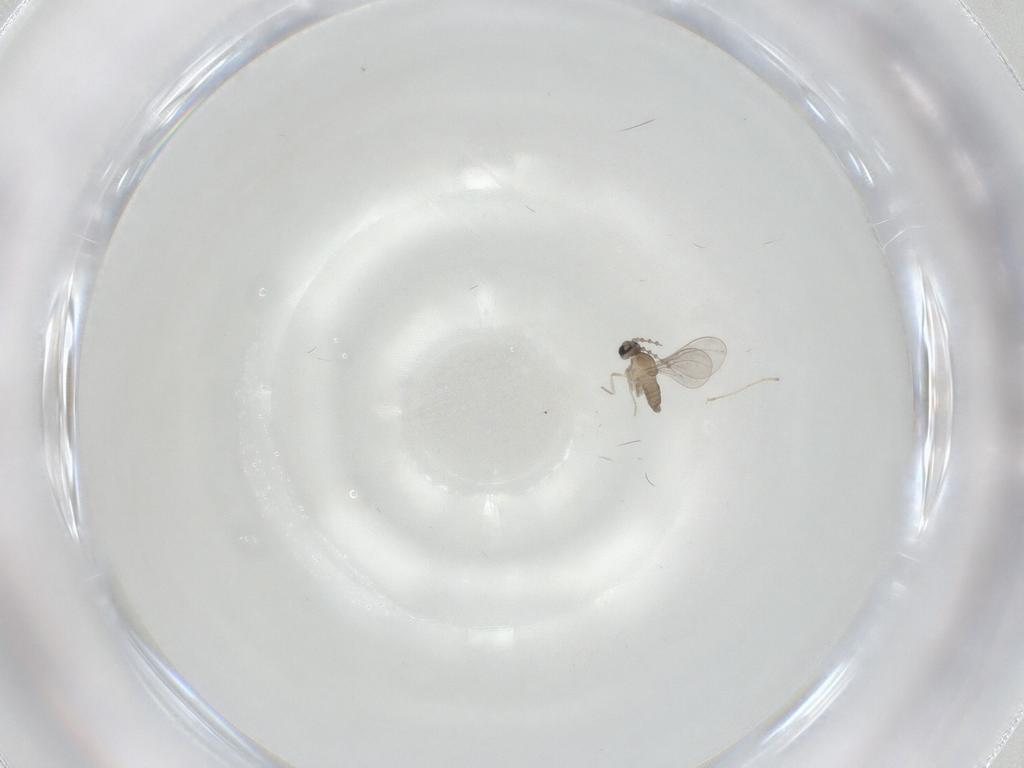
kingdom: Animalia
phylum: Arthropoda
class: Insecta
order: Diptera
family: Cecidomyiidae
